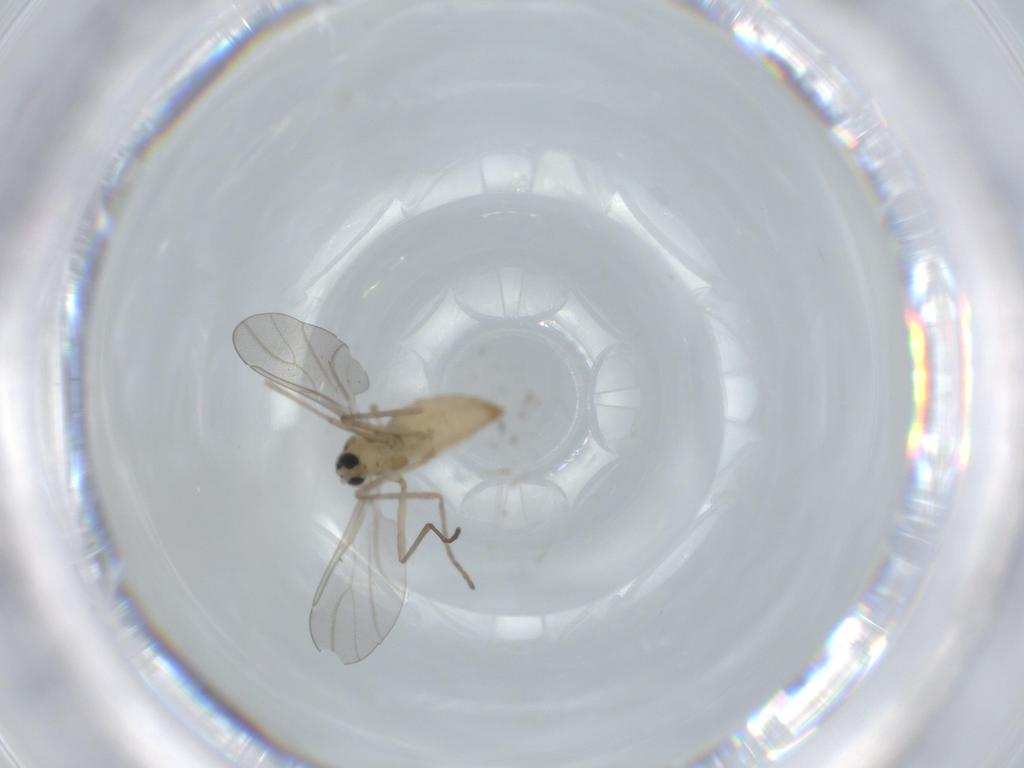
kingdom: Animalia
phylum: Arthropoda
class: Insecta
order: Diptera
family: Cecidomyiidae
